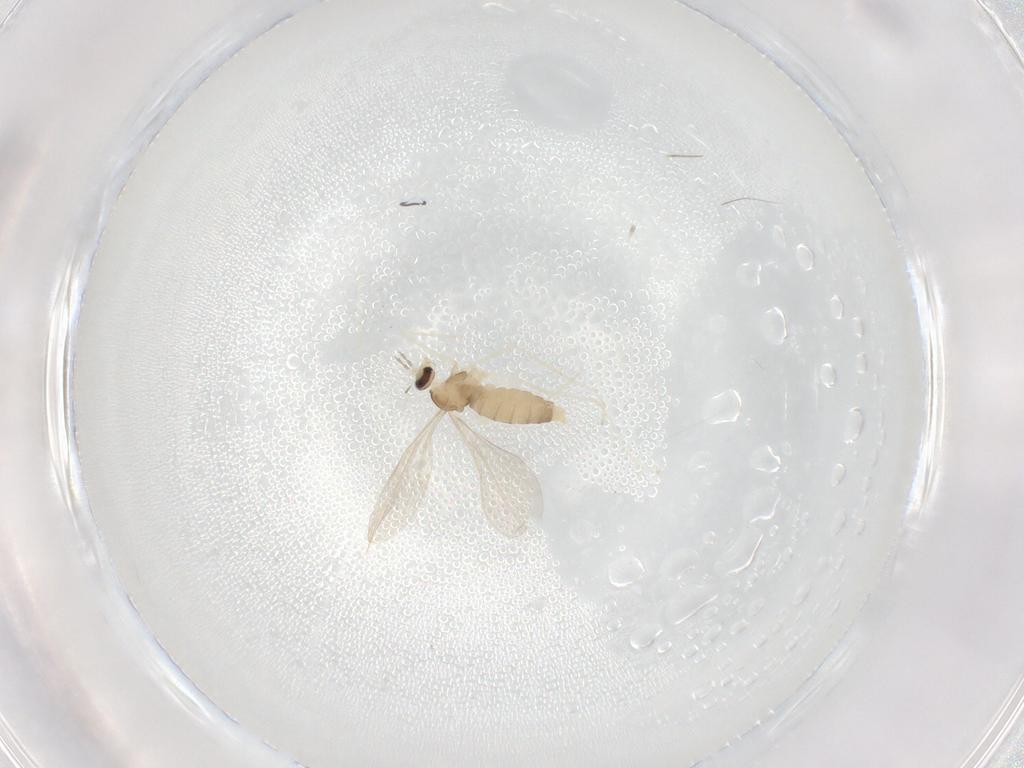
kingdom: Animalia
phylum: Arthropoda
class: Insecta
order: Diptera
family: Cecidomyiidae
